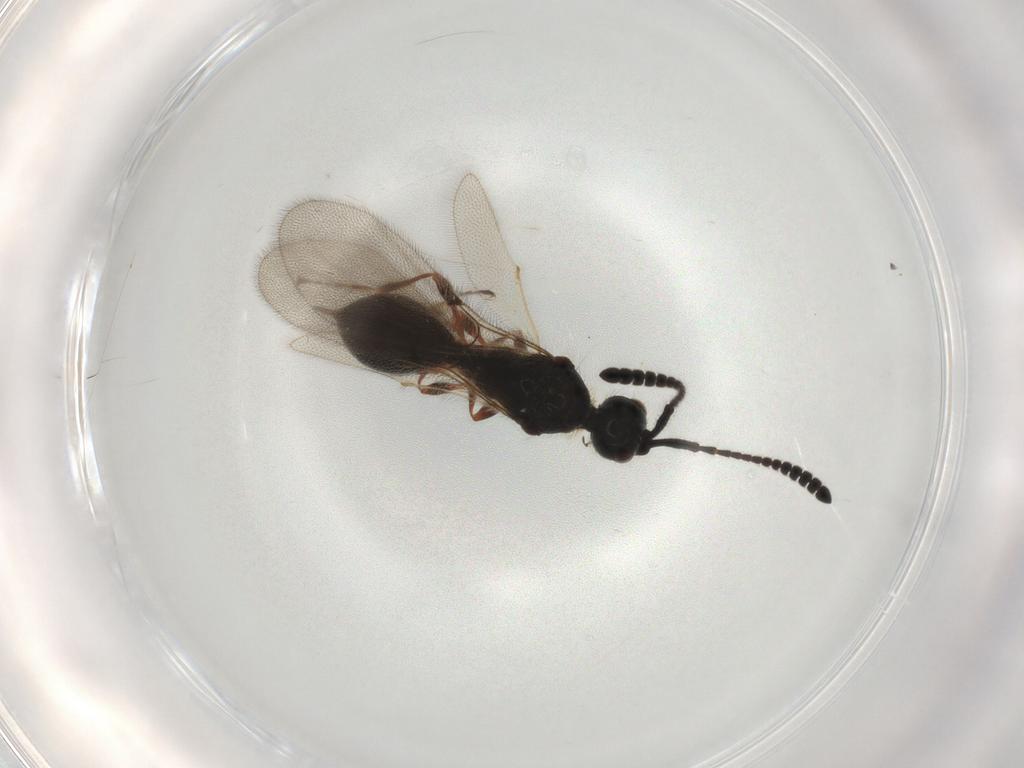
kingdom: Animalia
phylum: Arthropoda
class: Insecta
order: Hymenoptera
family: Diapriidae
